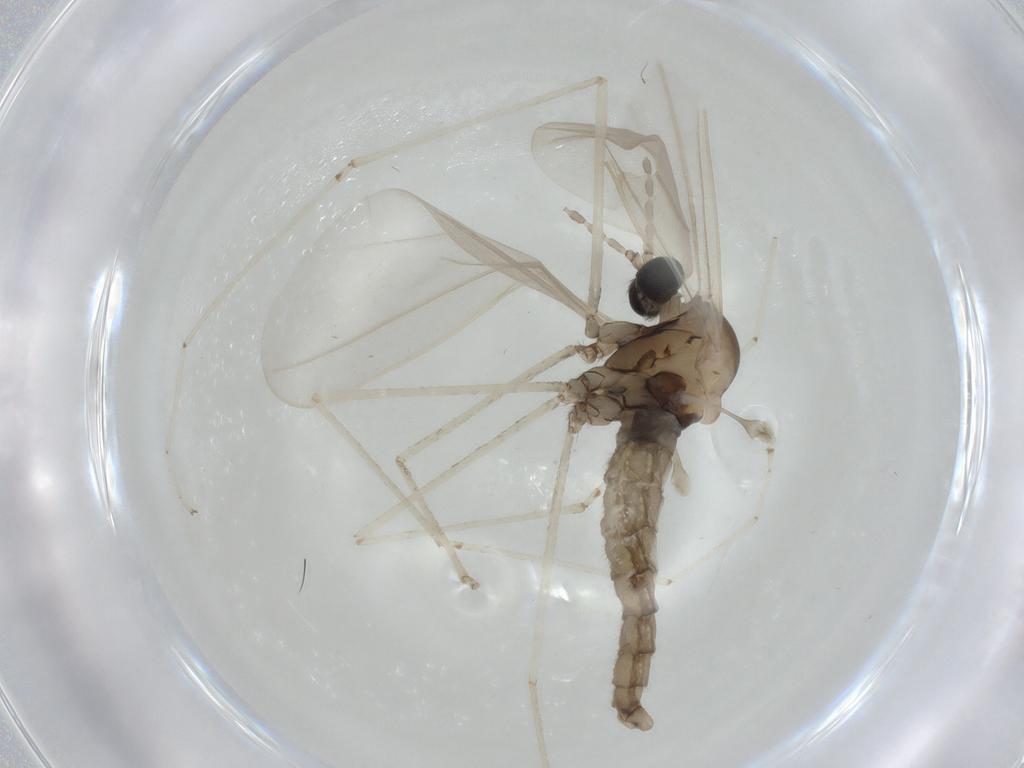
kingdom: Animalia
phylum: Arthropoda
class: Insecta
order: Diptera
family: Cecidomyiidae
